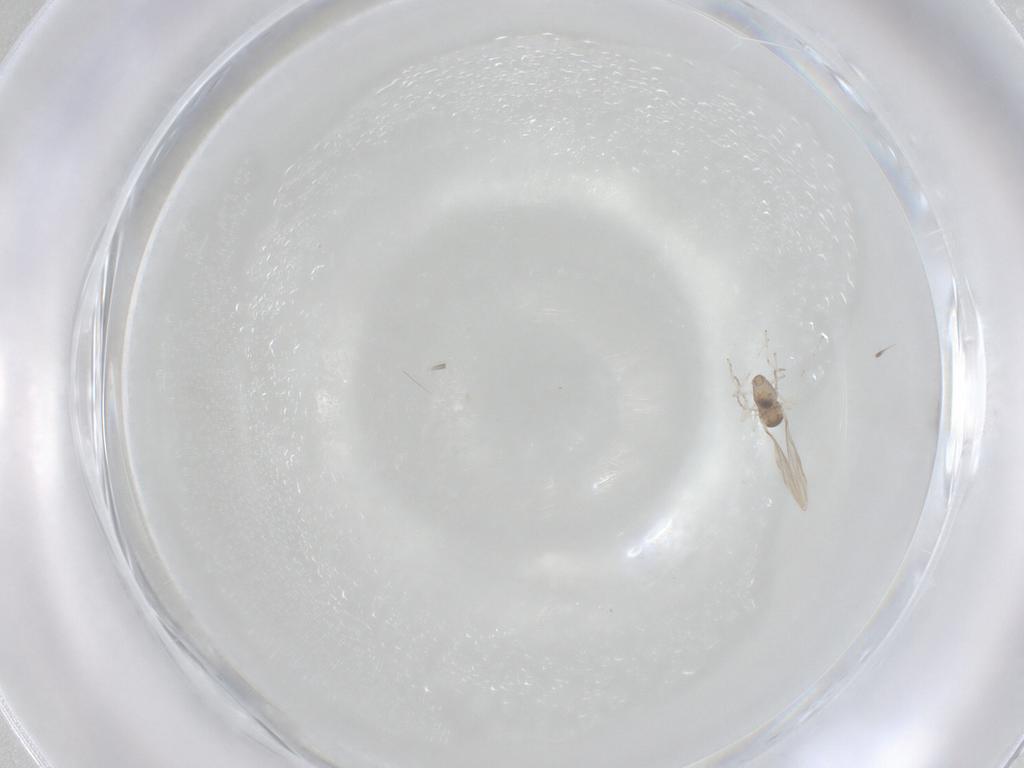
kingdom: Animalia
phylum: Arthropoda
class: Insecta
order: Diptera
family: Cecidomyiidae
